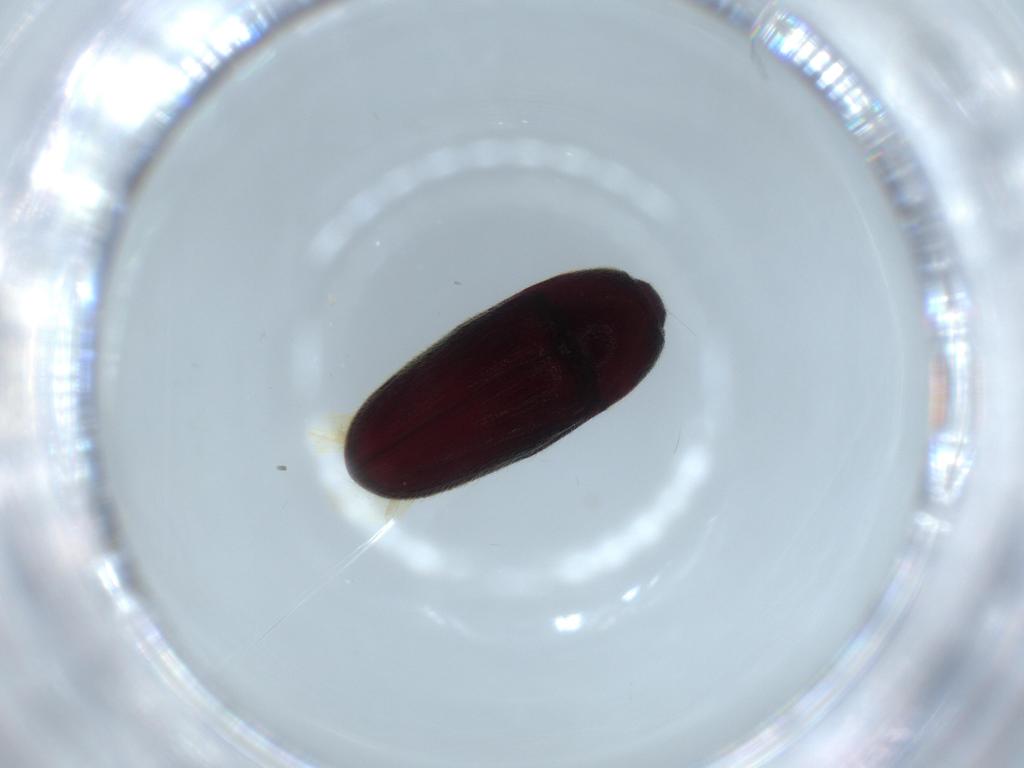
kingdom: Animalia
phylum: Arthropoda
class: Insecta
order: Coleoptera
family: Throscidae
